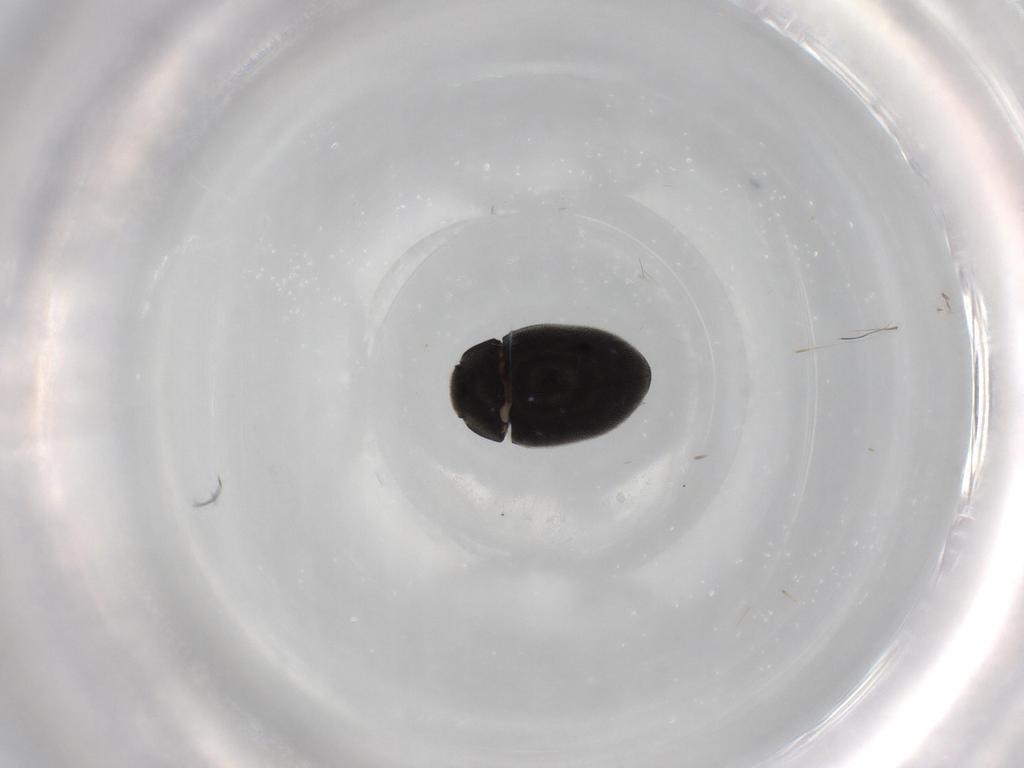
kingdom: Animalia
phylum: Arthropoda
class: Insecta
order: Coleoptera
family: Limnichidae
